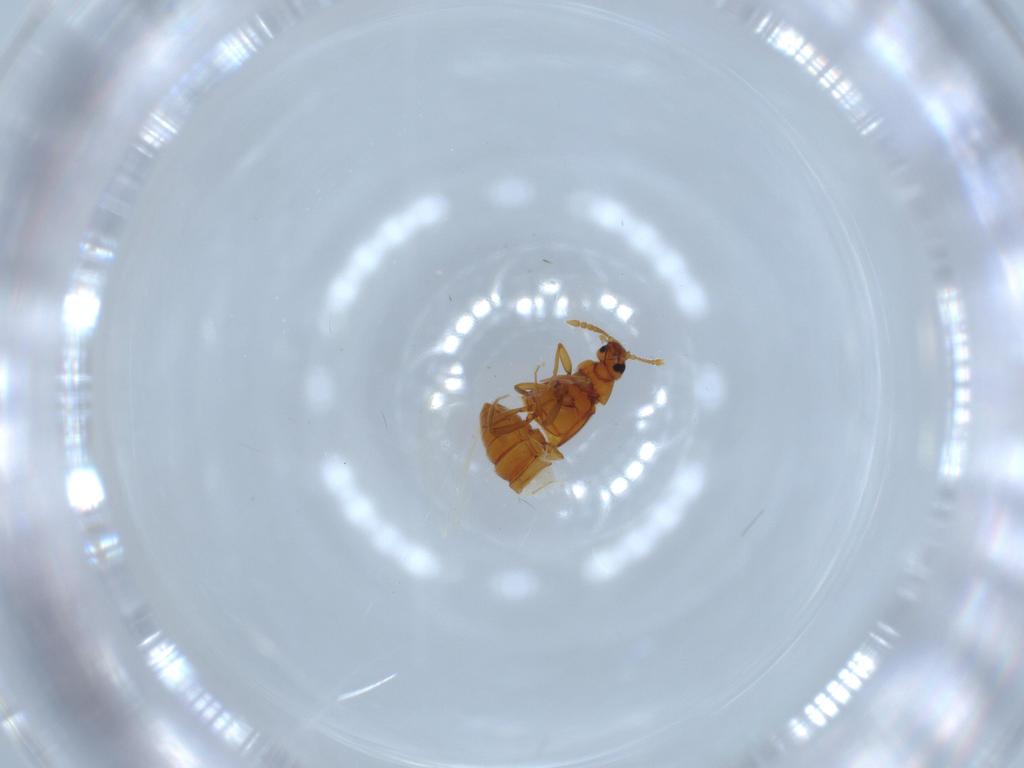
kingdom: Animalia
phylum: Arthropoda
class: Insecta
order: Coleoptera
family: Staphylinidae
